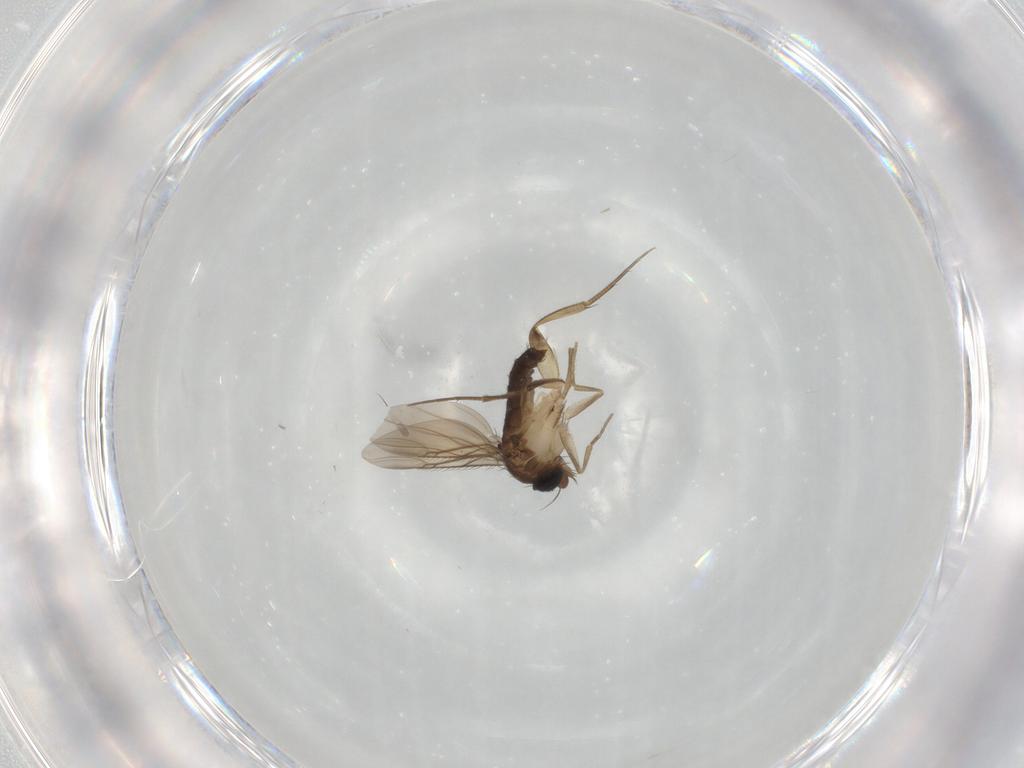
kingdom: Animalia
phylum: Arthropoda
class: Insecta
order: Diptera
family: Chironomidae
